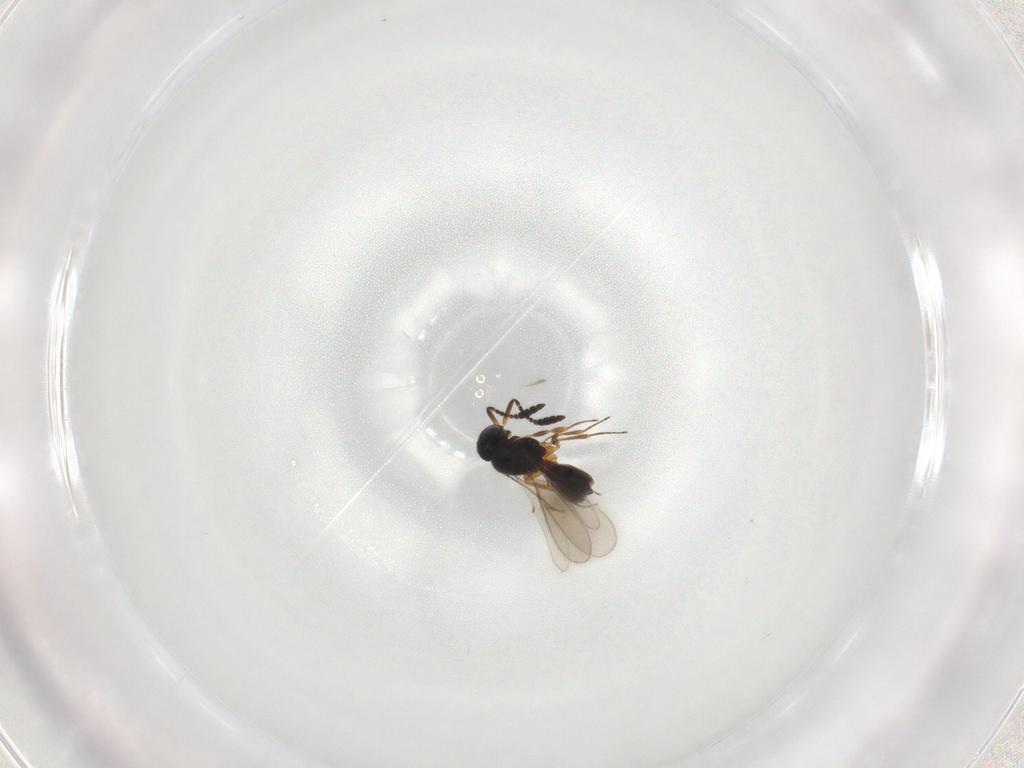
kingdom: Animalia
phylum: Arthropoda
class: Insecta
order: Hymenoptera
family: Scelionidae
